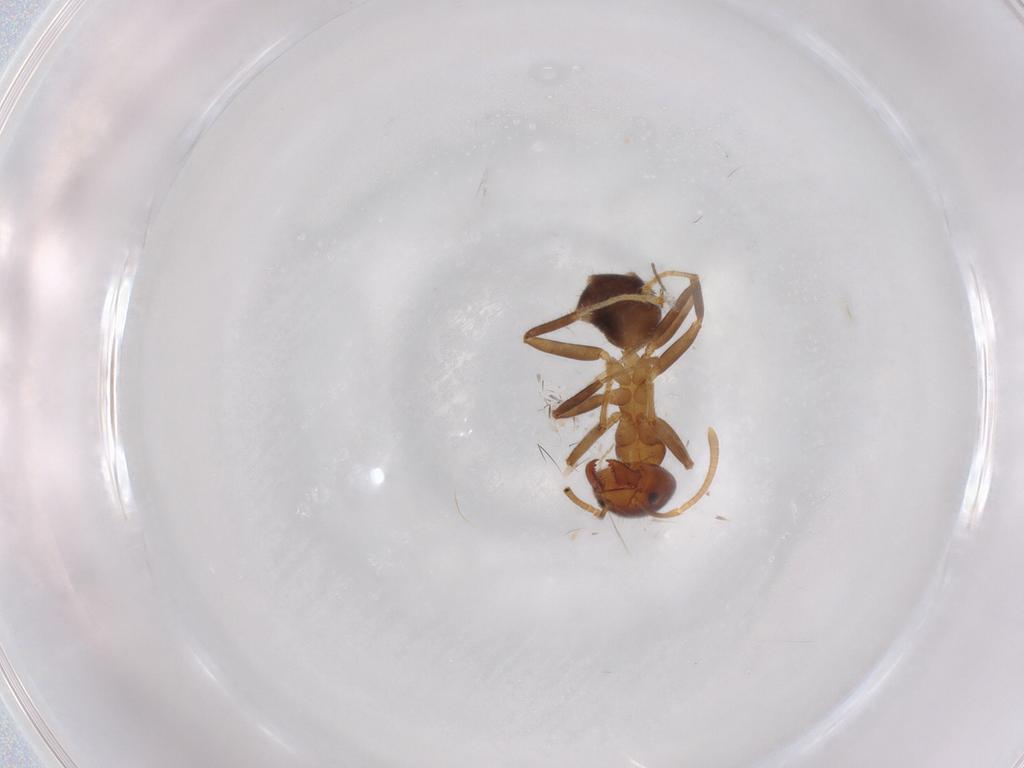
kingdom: Animalia
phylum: Arthropoda
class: Insecta
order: Hymenoptera
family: Formicidae
